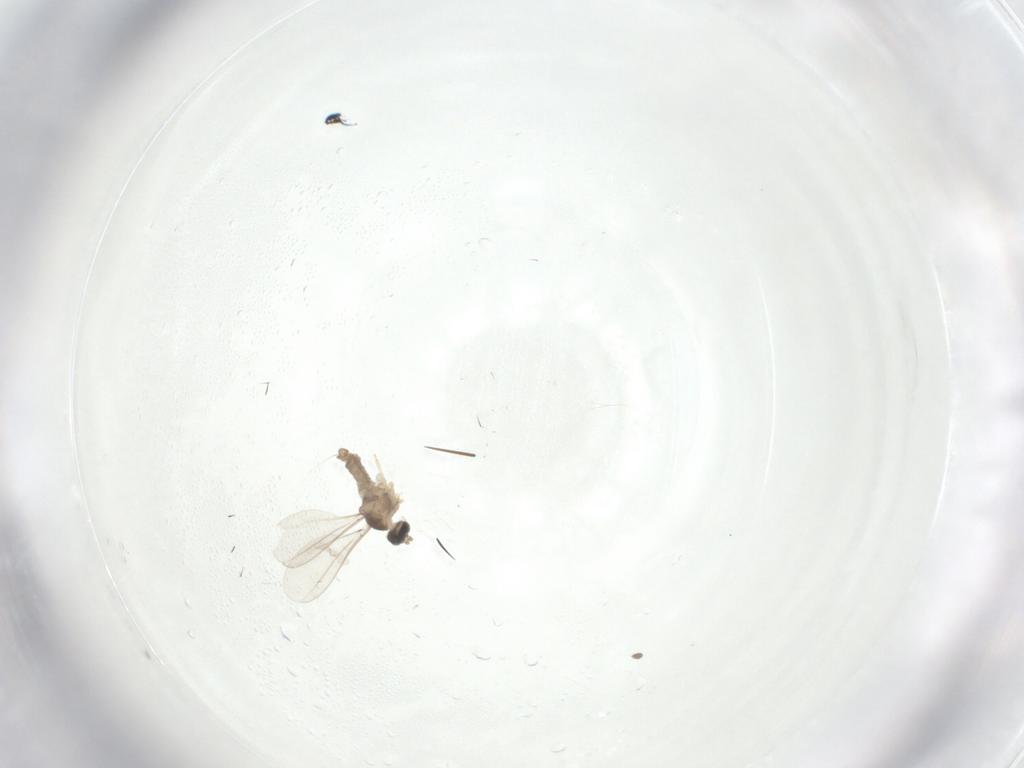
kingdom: Animalia
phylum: Arthropoda
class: Insecta
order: Diptera
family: Cecidomyiidae
